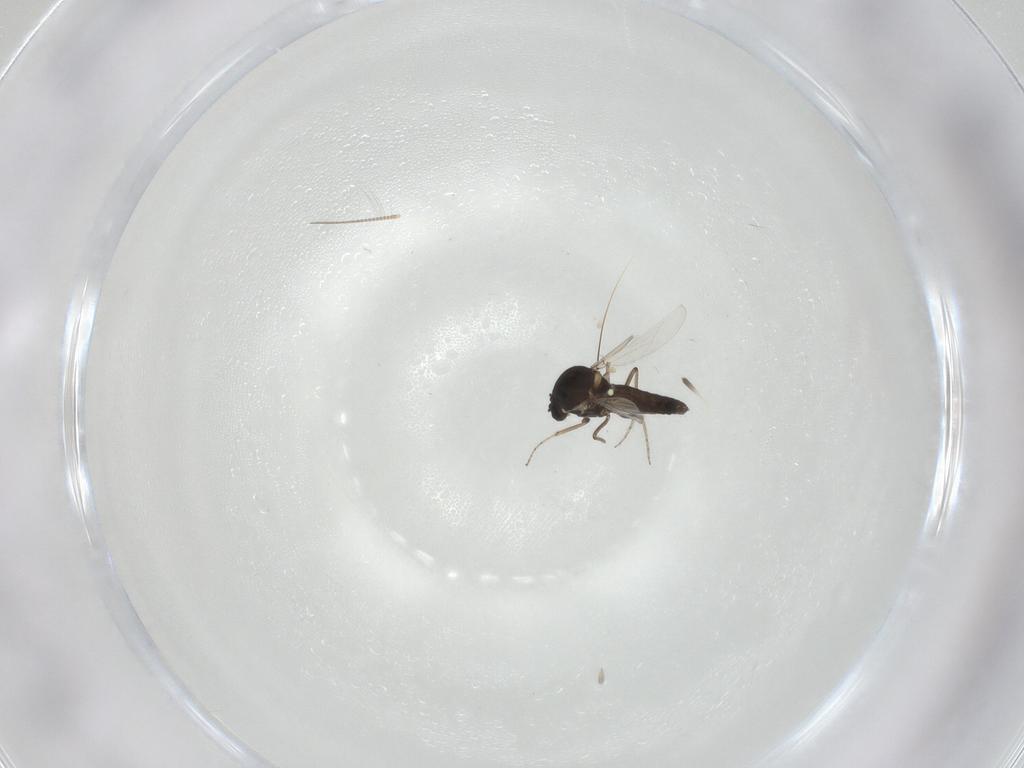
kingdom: Animalia
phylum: Arthropoda
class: Insecta
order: Diptera
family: Ceratopogonidae
